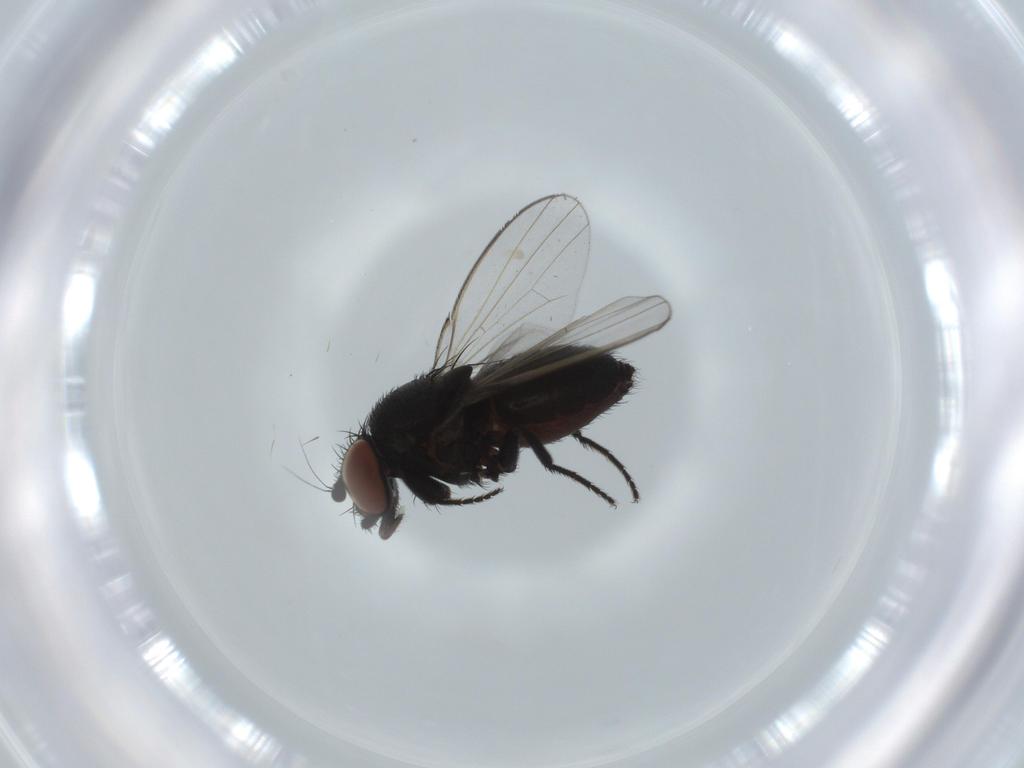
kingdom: Animalia
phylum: Arthropoda
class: Insecta
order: Diptera
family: Milichiidae
